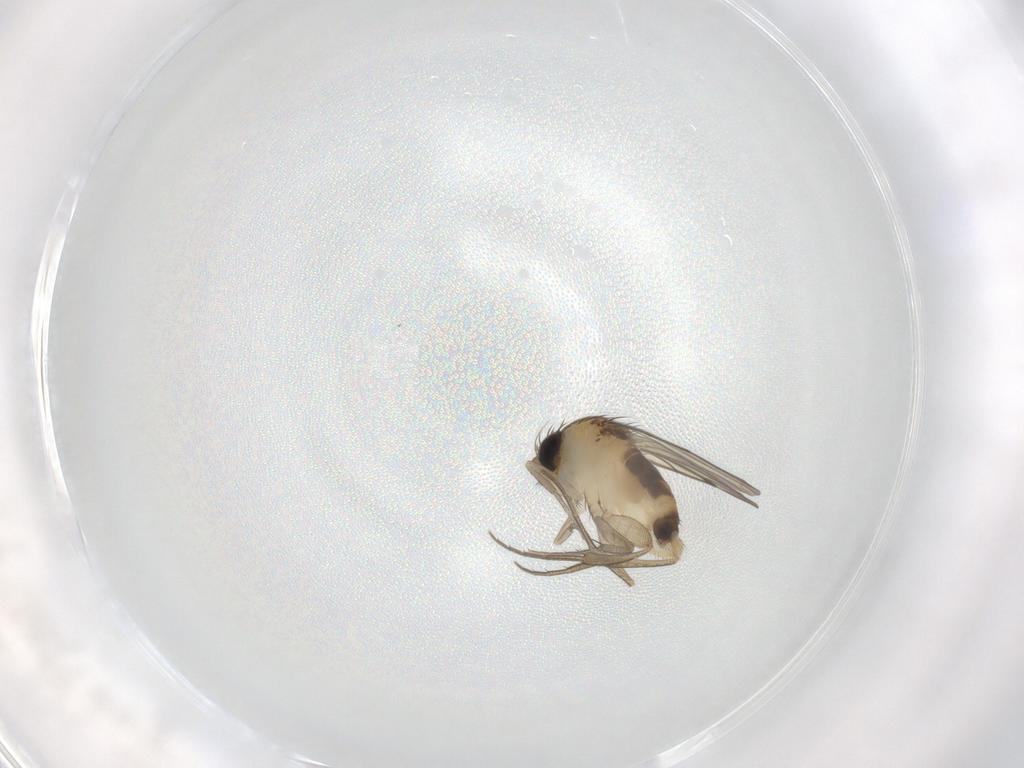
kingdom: Animalia
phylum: Arthropoda
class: Insecta
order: Diptera
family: Phoridae
